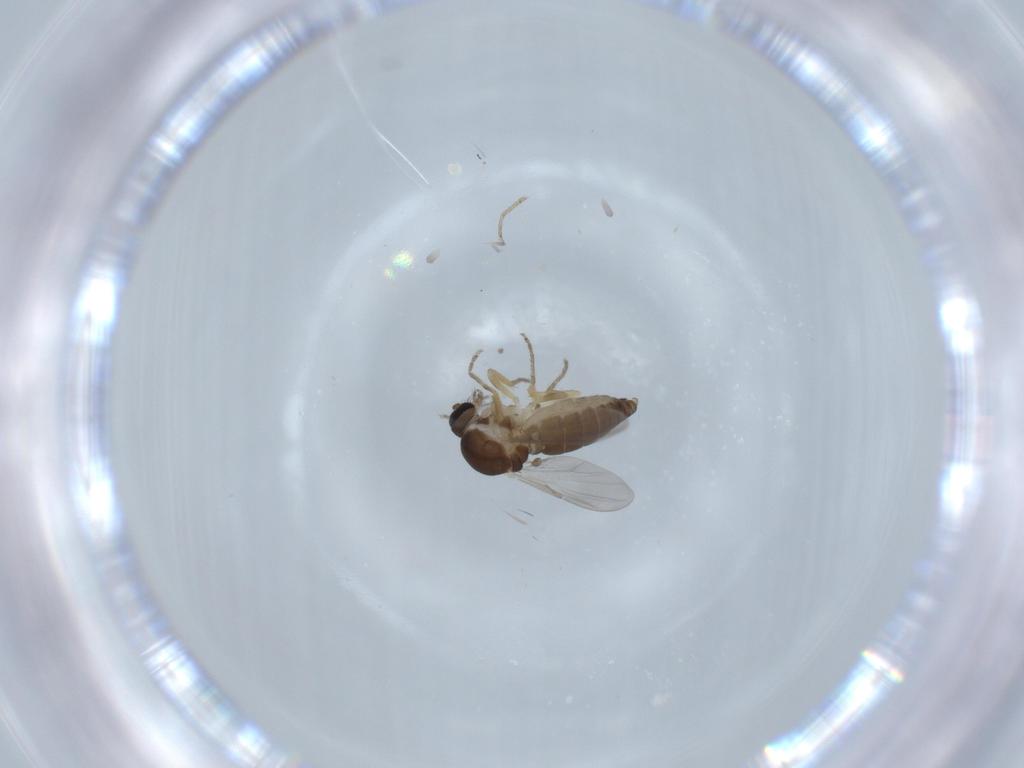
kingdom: Animalia
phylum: Arthropoda
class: Insecta
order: Diptera
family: Ceratopogonidae
